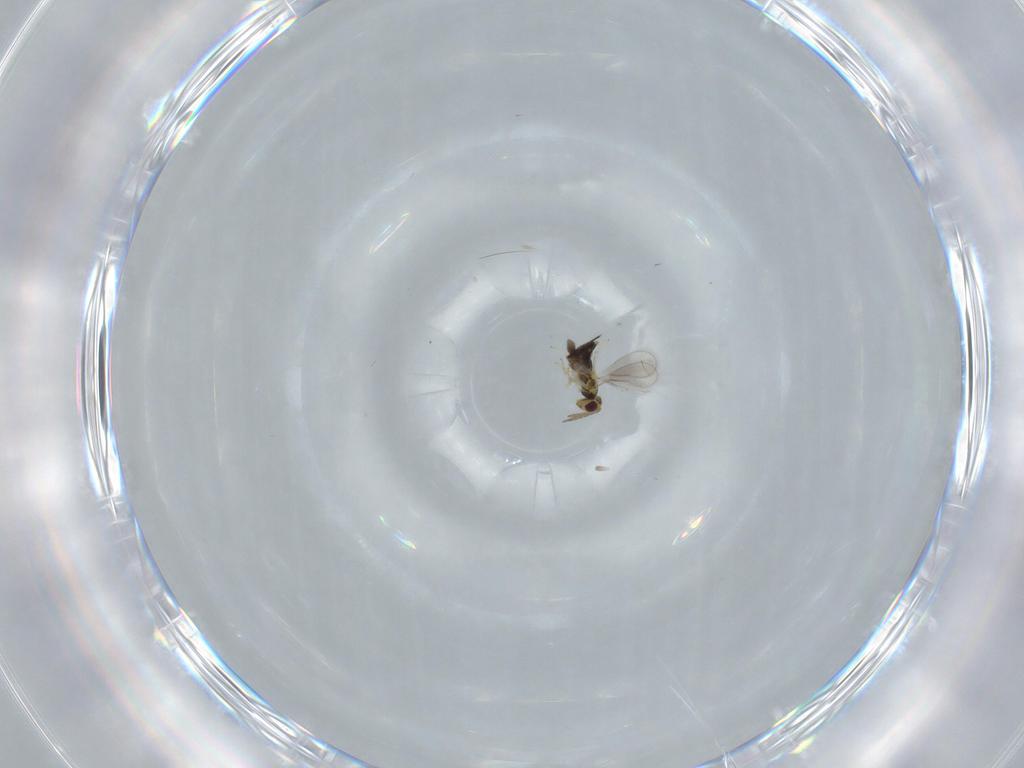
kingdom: Animalia
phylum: Arthropoda
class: Insecta
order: Hymenoptera
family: Aphelinidae
